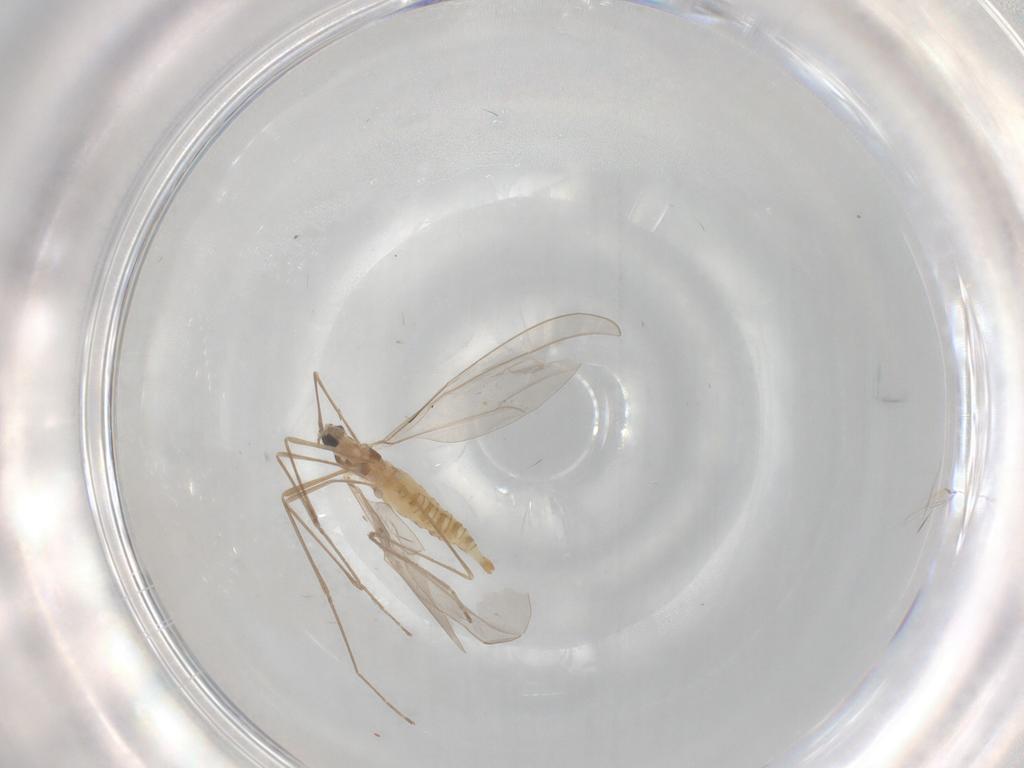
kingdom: Animalia
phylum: Arthropoda
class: Insecta
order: Diptera
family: Cecidomyiidae
